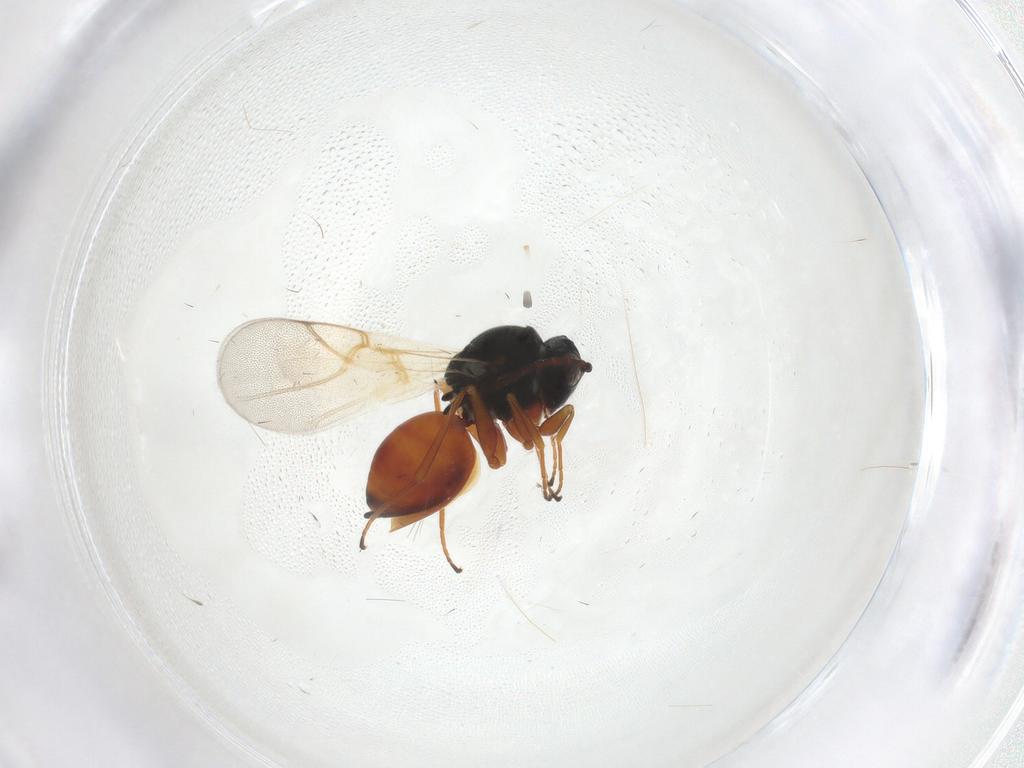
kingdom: Animalia
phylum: Arthropoda
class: Insecta
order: Hymenoptera
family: Cynipidae
